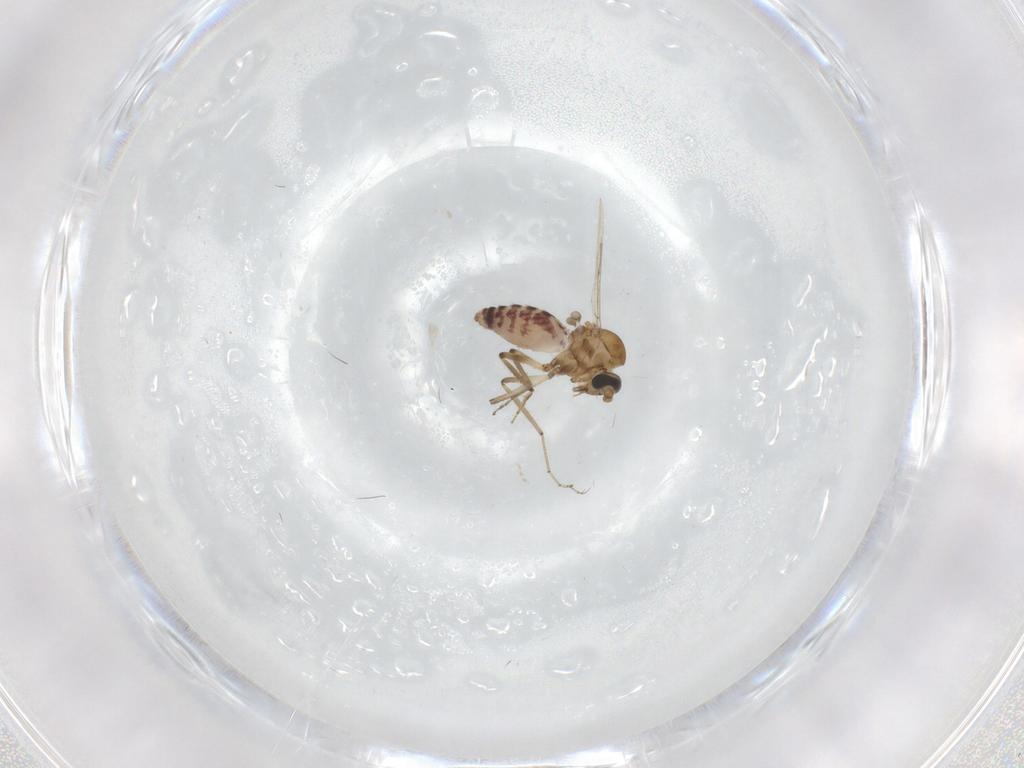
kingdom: Animalia
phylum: Arthropoda
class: Insecta
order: Diptera
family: Ceratopogonidae
